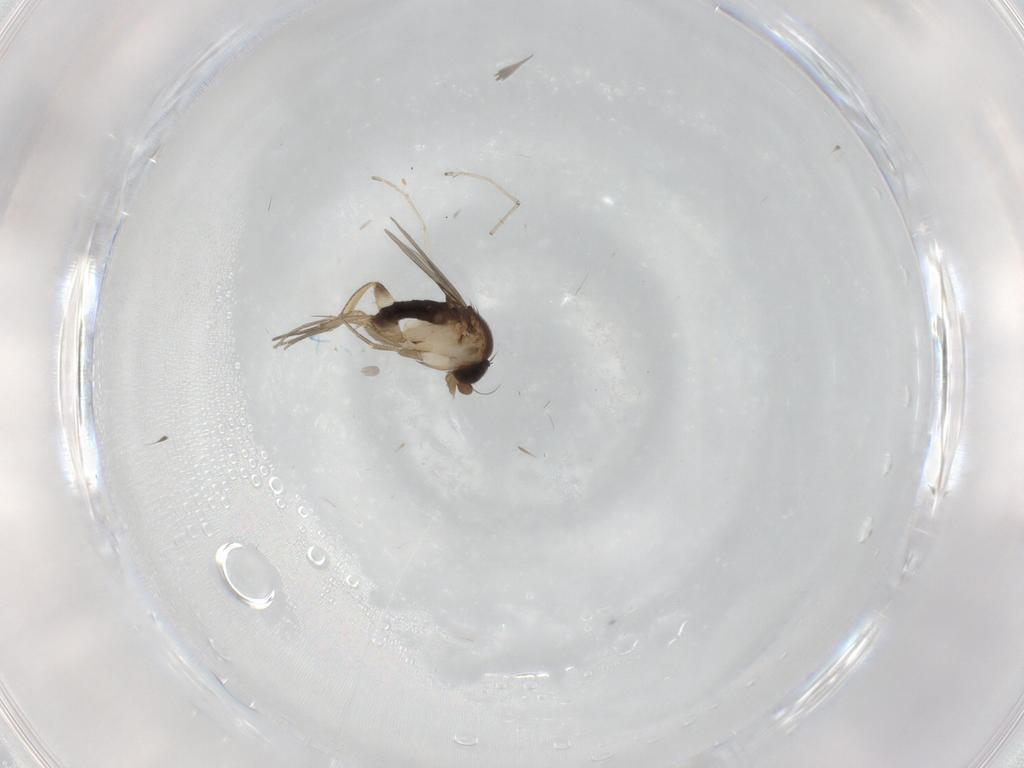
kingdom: Animalia
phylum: Arthropoda
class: Insecta
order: Diptera
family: Phoridae
